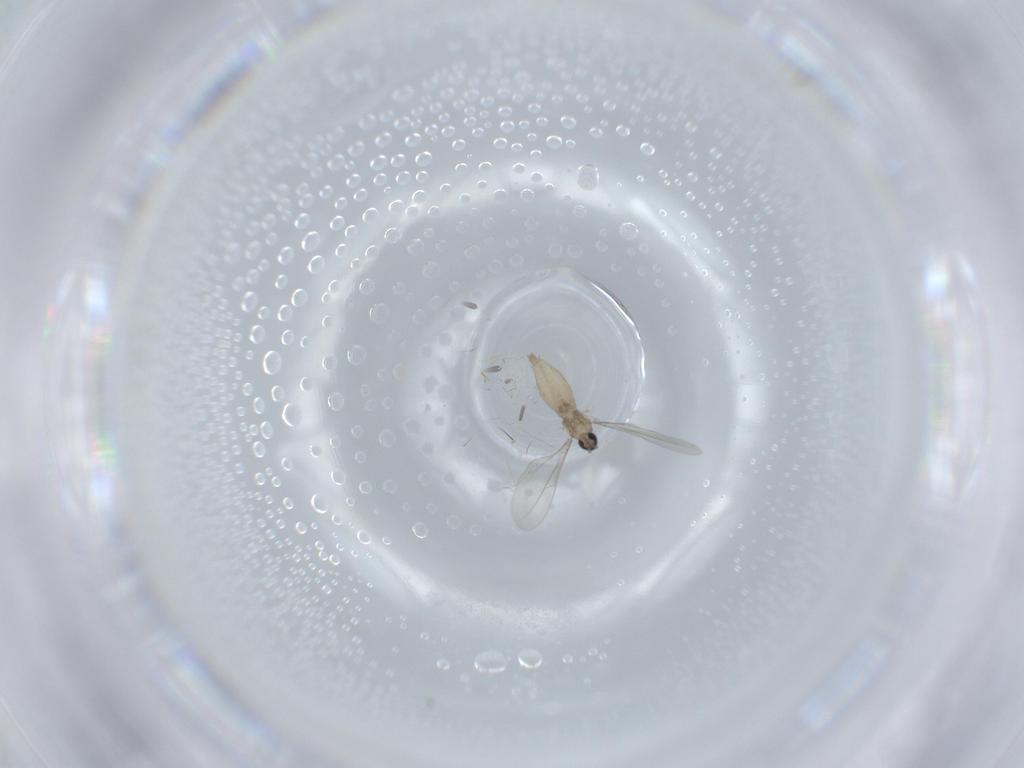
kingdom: Animalia
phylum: Arthropoda
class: Insecta
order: Diptera
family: Cecidomyiidae
